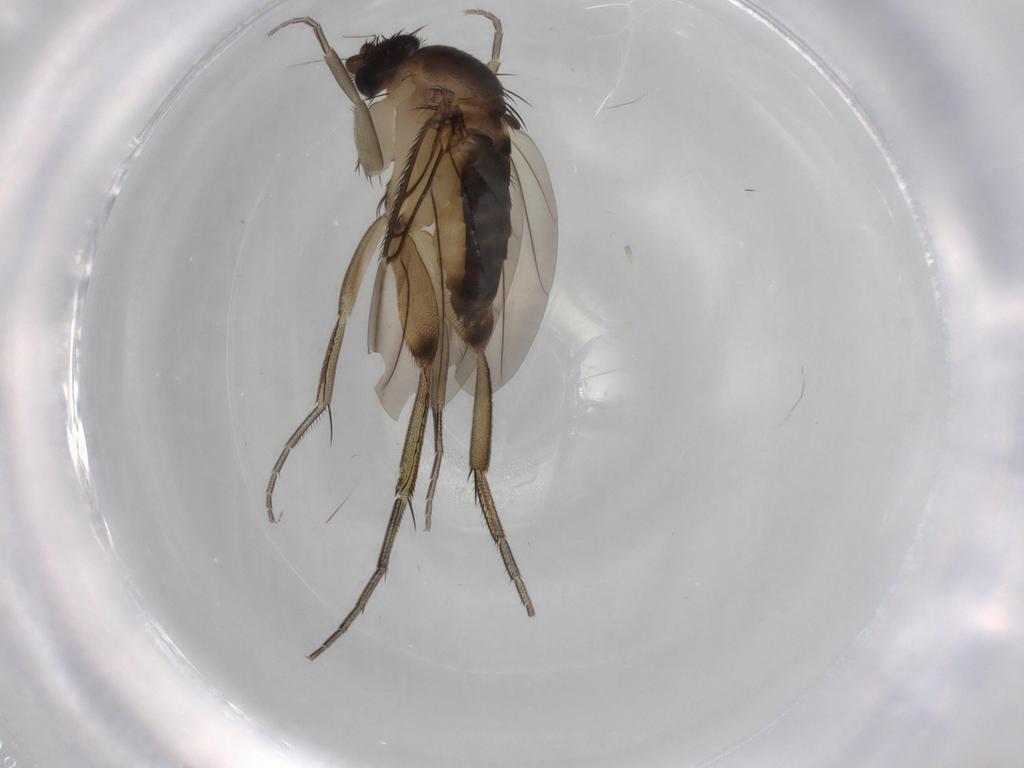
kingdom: Animalia
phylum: Arthropoda
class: Insecta
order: Diptera
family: Phoridae
